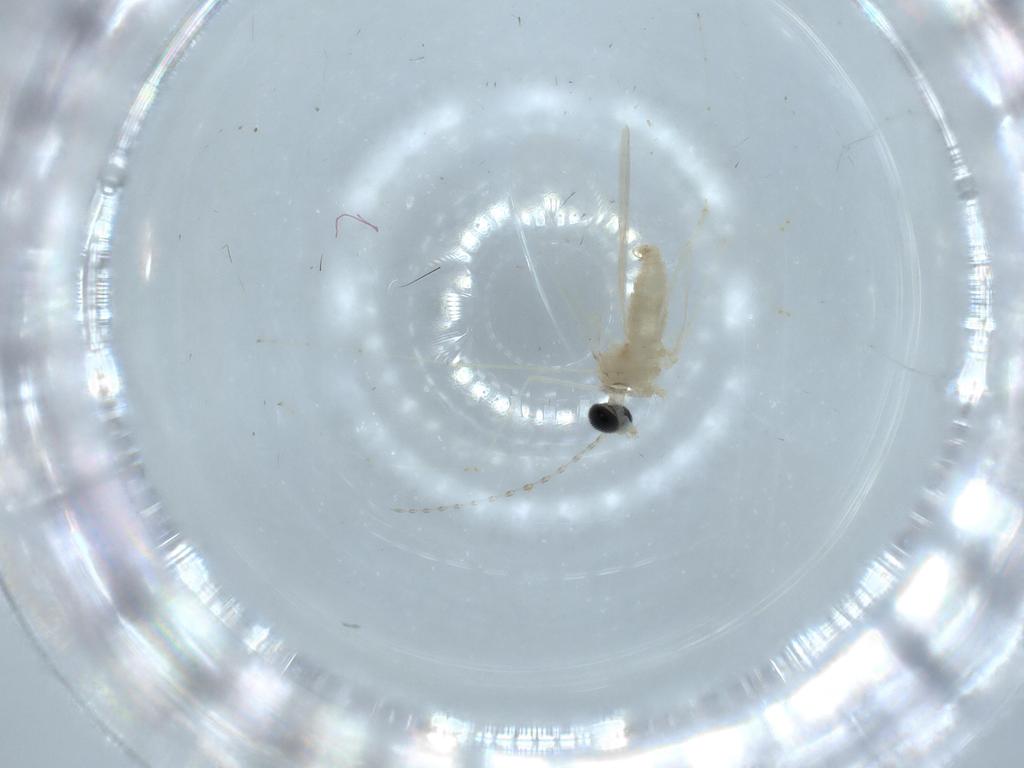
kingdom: Animalia
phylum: Arthropoda
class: Insecta
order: Diptera
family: Cecidomyiidae
